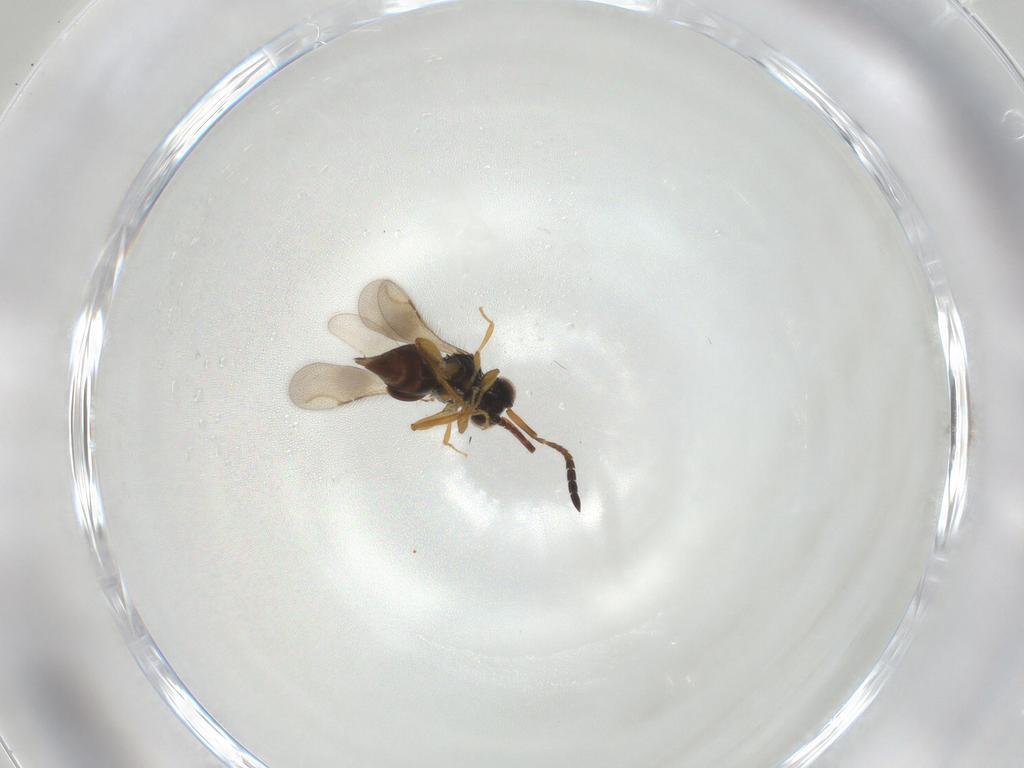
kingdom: Animalia
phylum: Arthropoda
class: Insecta
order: Hymenoptera
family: Ceraphronidae
